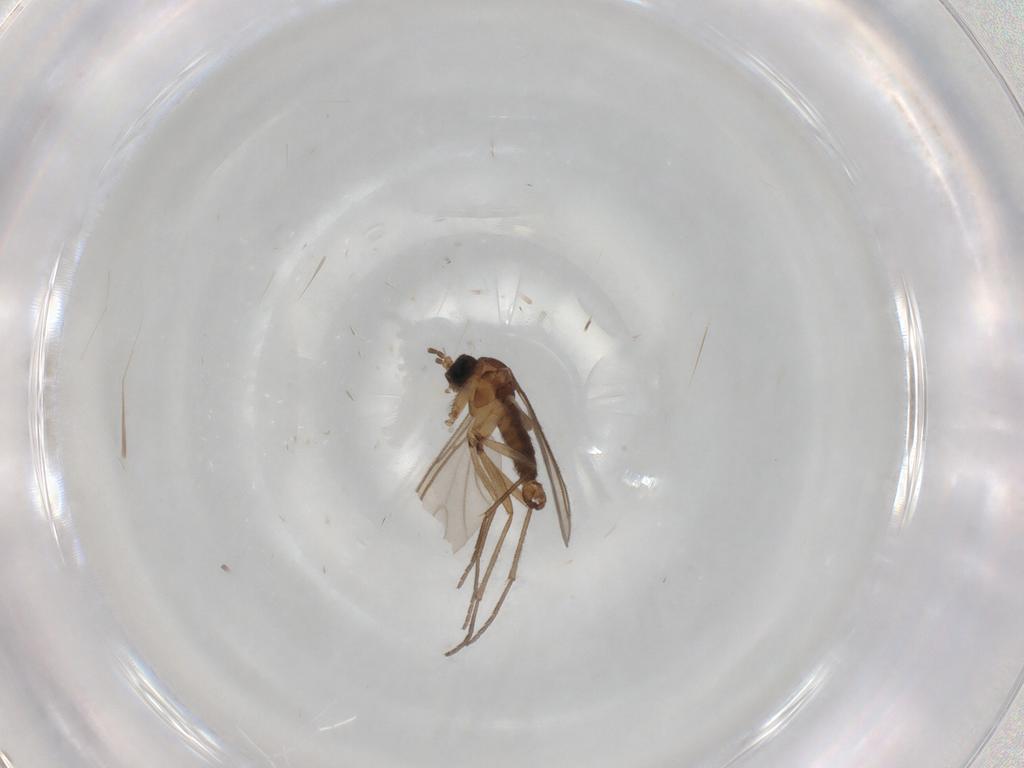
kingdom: Animalia
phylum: Arthropoda
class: Insecta
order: Diptera
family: Sciaridae
